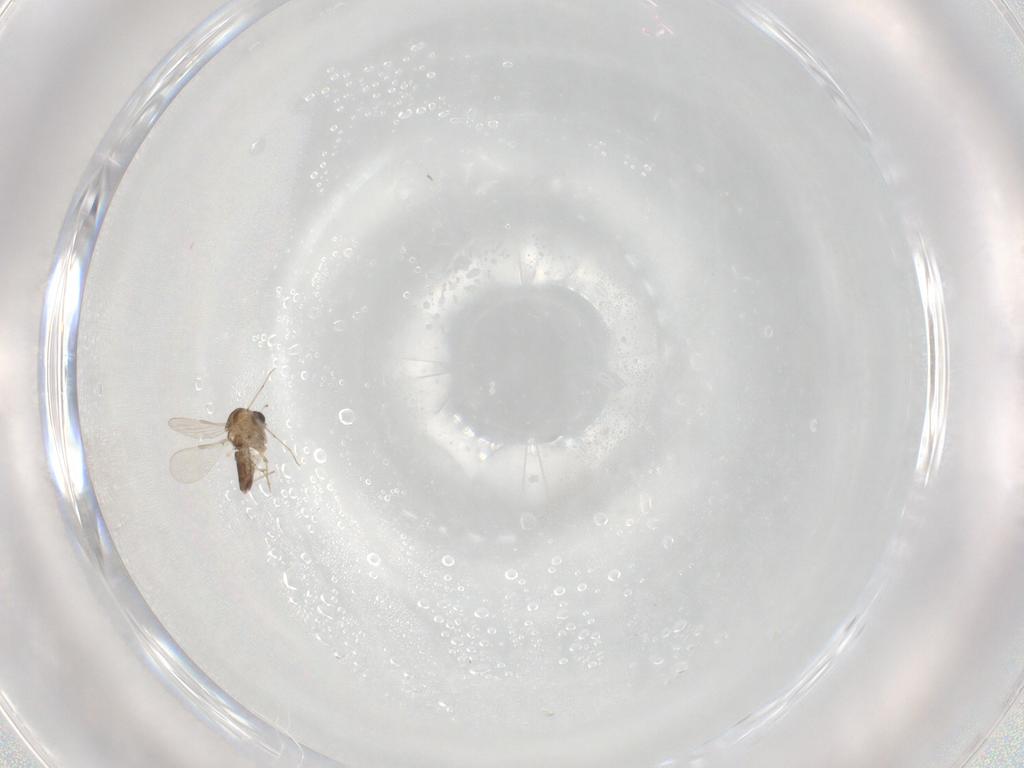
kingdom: Animalia
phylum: Arthropoda
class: Insecta
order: Diptera
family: Chironomidae
